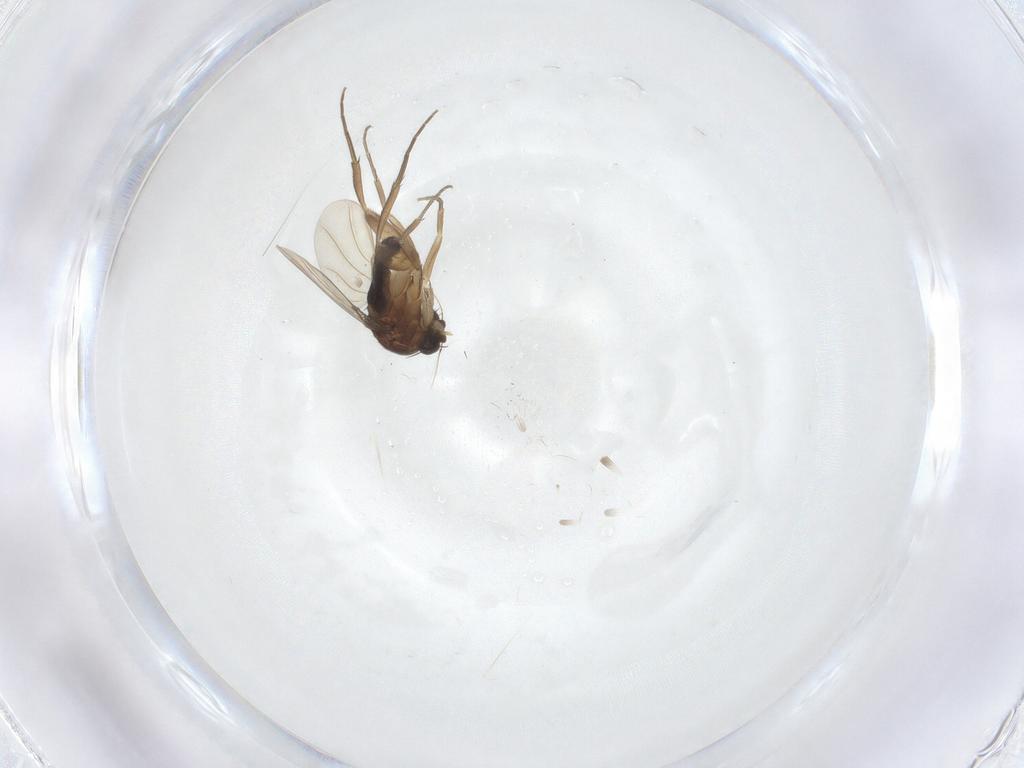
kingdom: Animalia
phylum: Arthropoda
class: Insecta
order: Diptera
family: Phoridae
